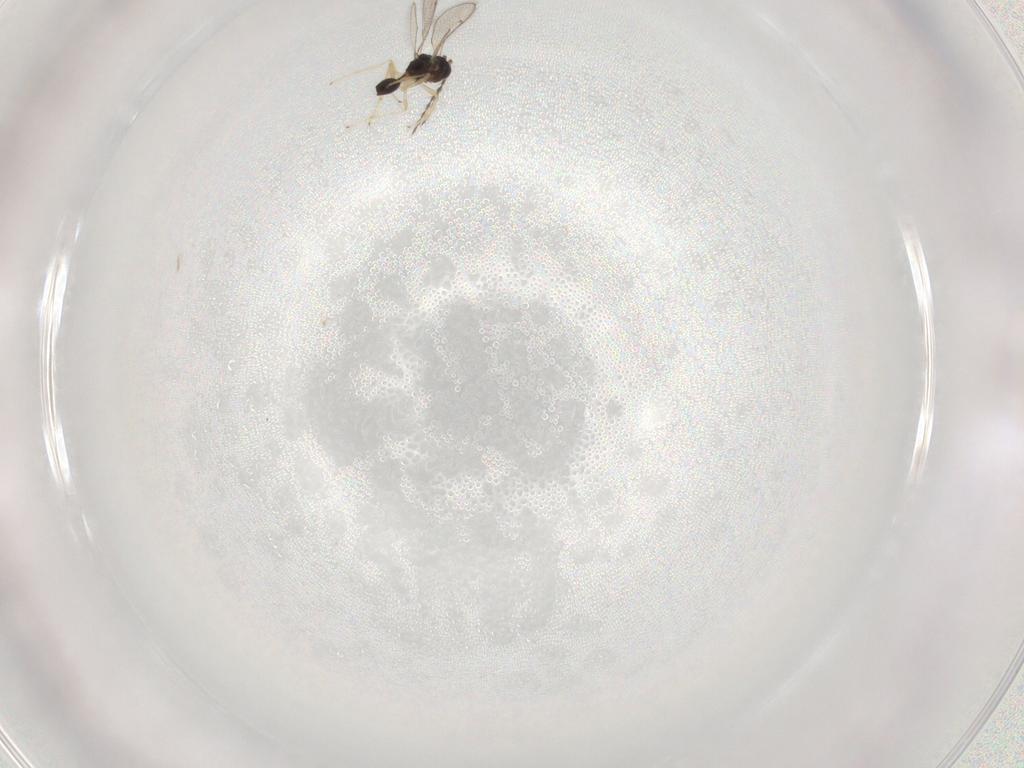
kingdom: Animalia
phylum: Arthropoda
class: Insecta
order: Hymenoptera
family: Diparidae
